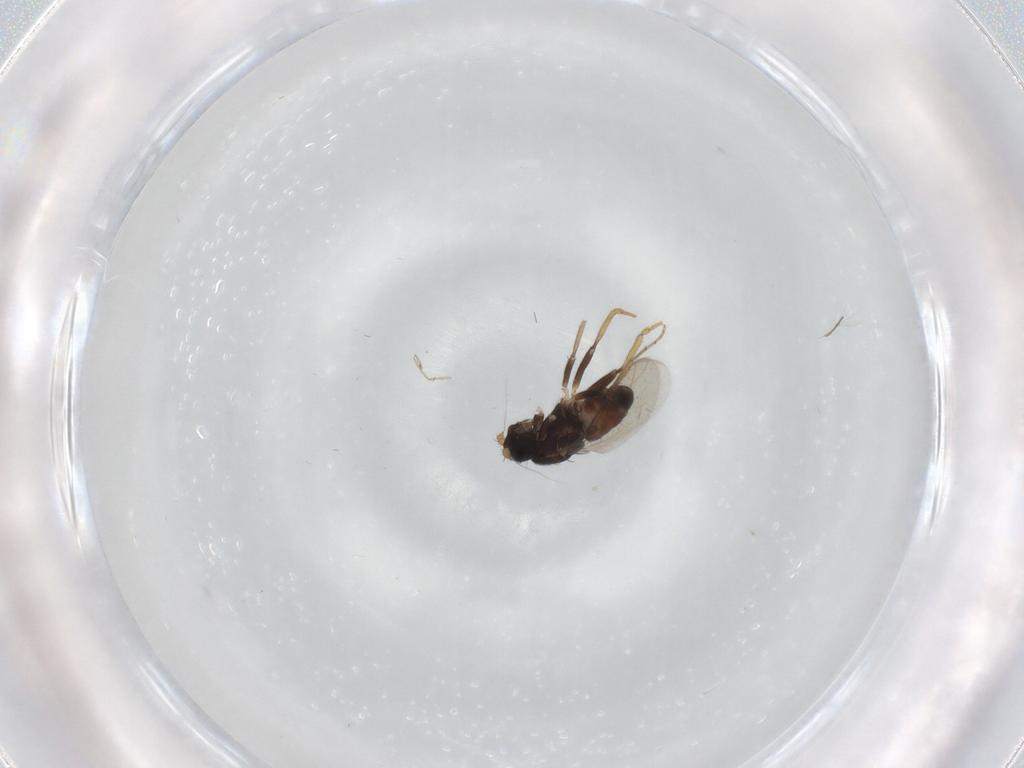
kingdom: Animalia
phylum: Arthropoda
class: Insecta
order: Diptera
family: Sphaeroceridae
